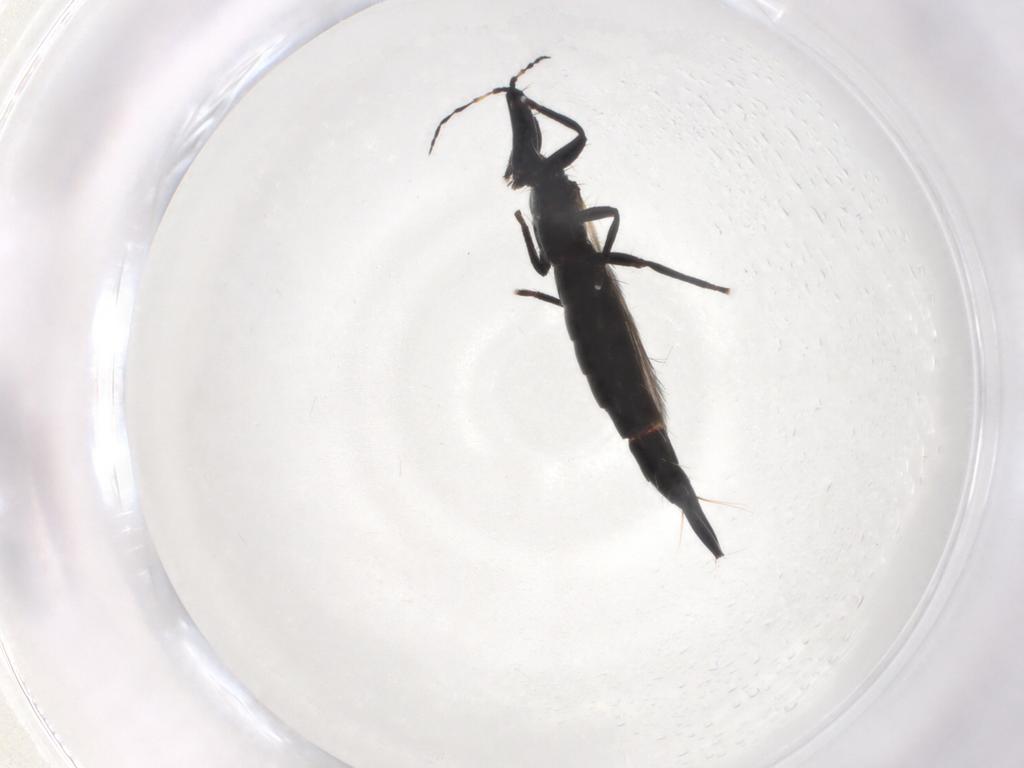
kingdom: Animalia
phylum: Arthropoda
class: Insecta
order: Thysanoptera
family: Phlaeothripidae
